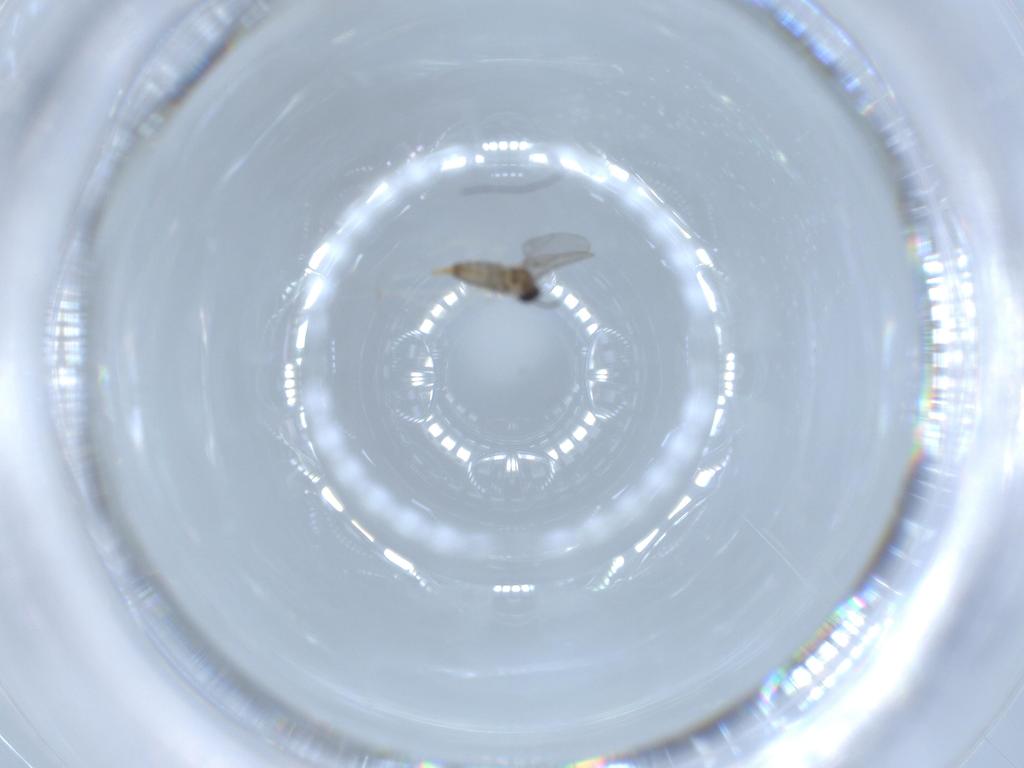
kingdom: Animalia
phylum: Arthropoda
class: Insecta
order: Diptera
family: Cecidomyiidae
